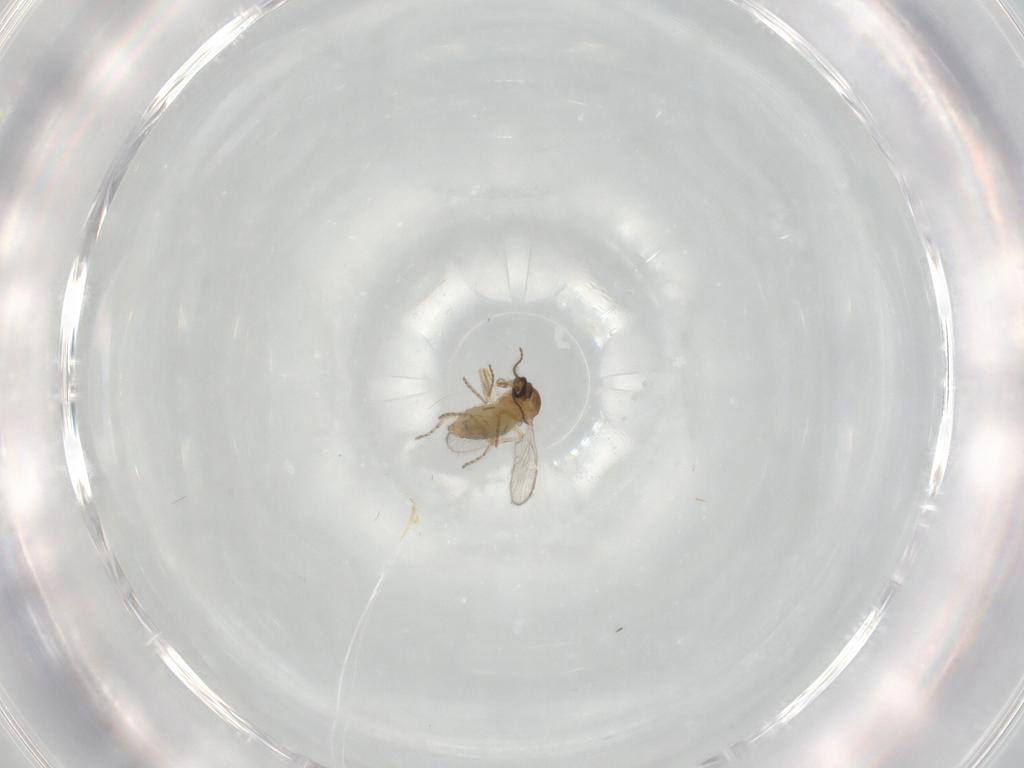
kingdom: Animalia
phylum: Arthropoda
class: Insecta
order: Diptera
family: Ceratopogonidae
